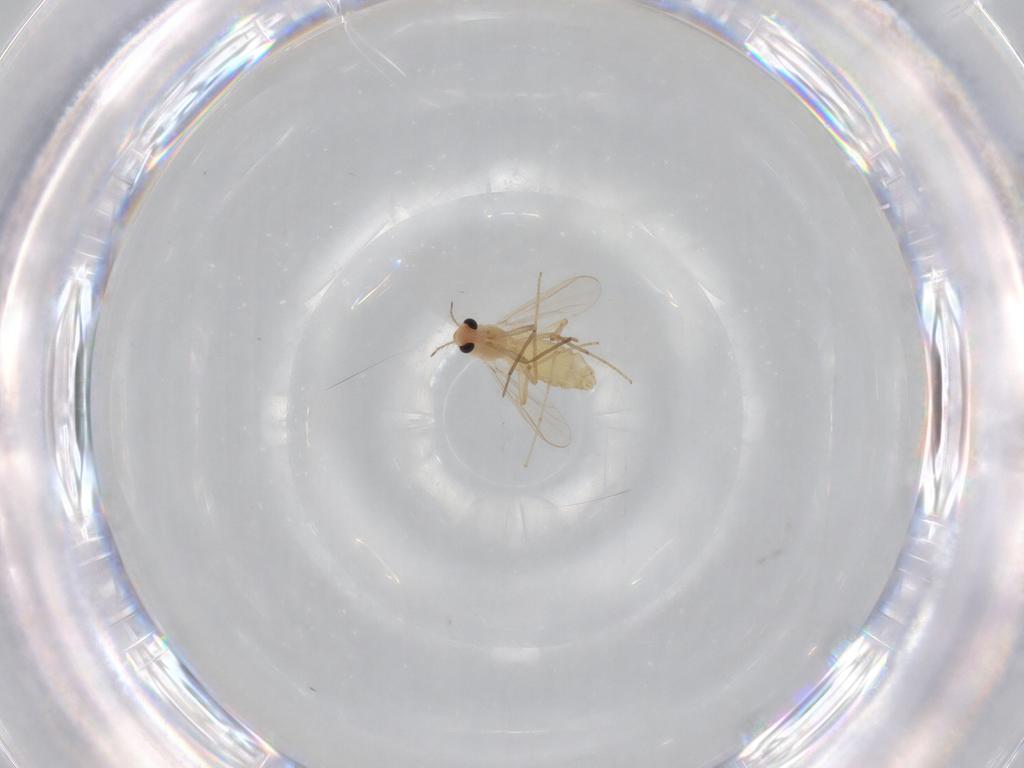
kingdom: Animalia
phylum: Arthropoda
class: Insecta
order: Diptera
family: Chironomidae
